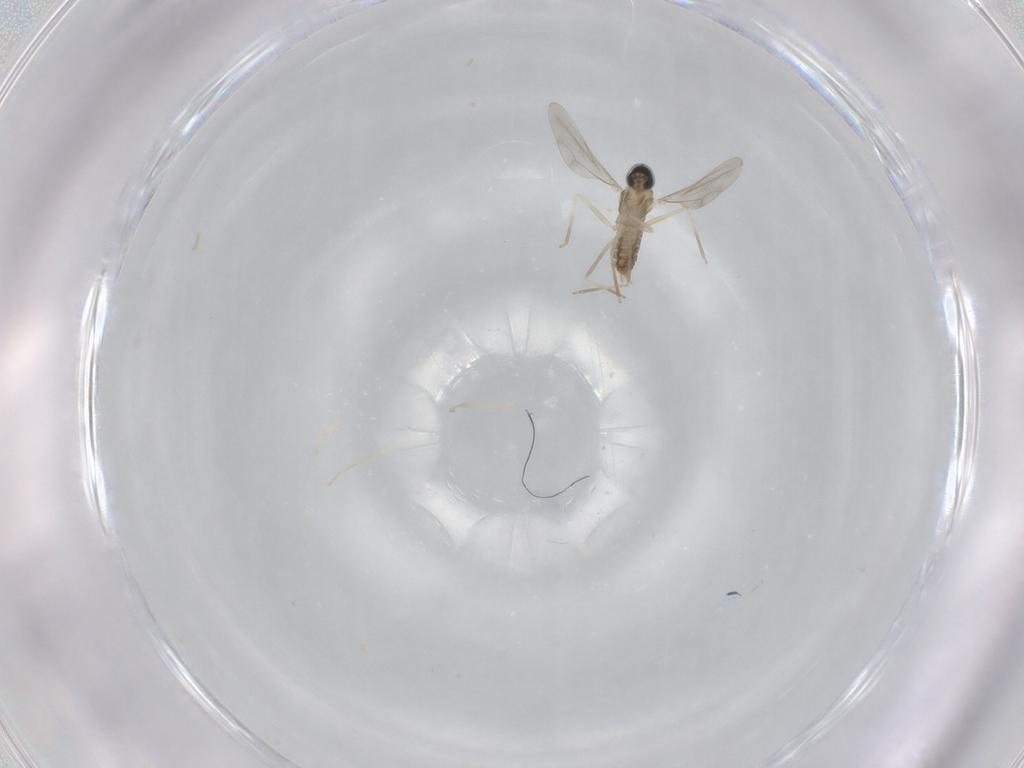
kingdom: Animalia
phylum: Arthropoda
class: Insecta
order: Diptera
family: Cecidomyiidae
